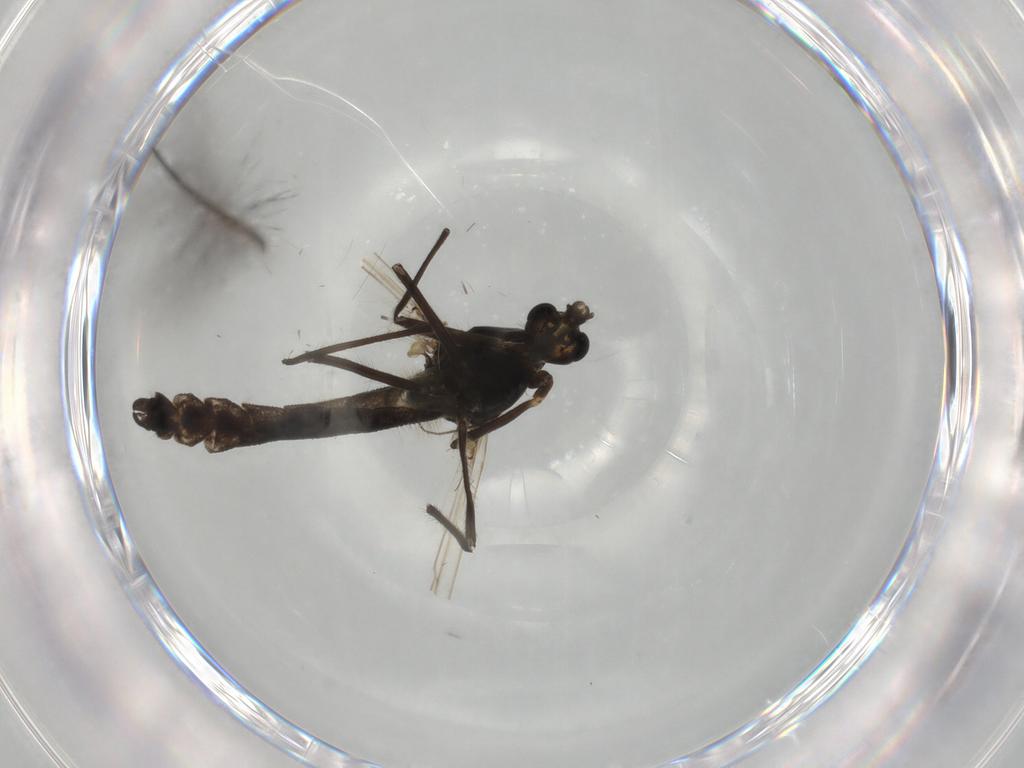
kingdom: Animalia
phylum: Arthropoda
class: Insecta
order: Diptera
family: Chironomidae
